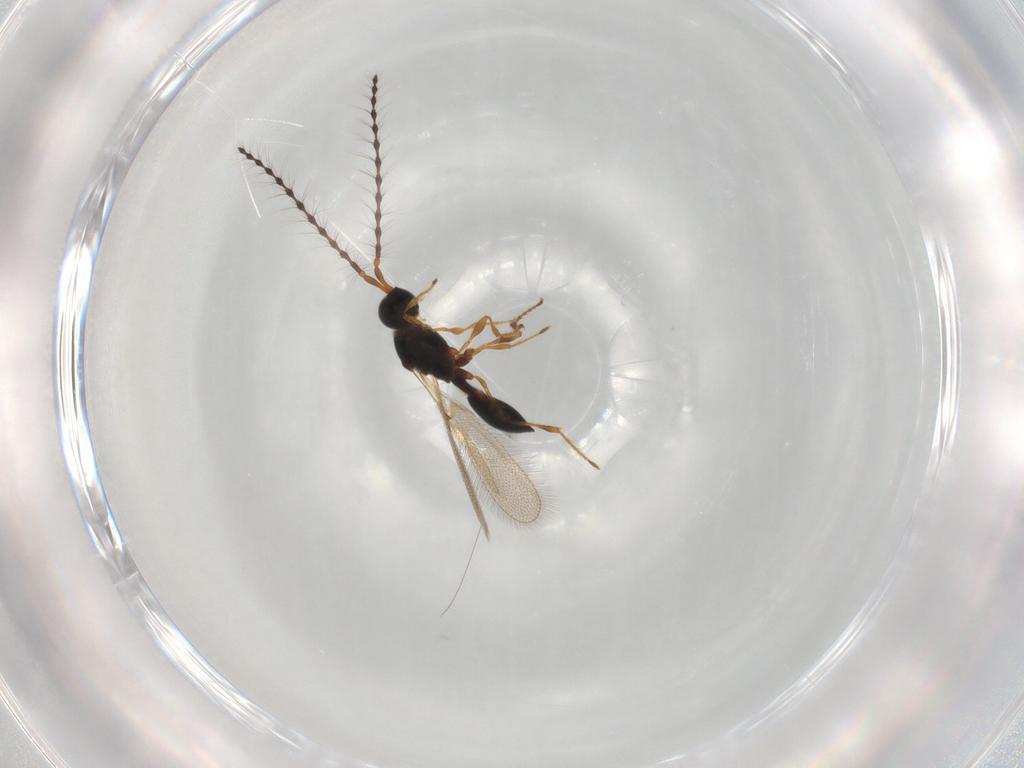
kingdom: Animalia
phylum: Arthropoda
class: Insecta
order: Hymenoptera
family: Diapriidae
